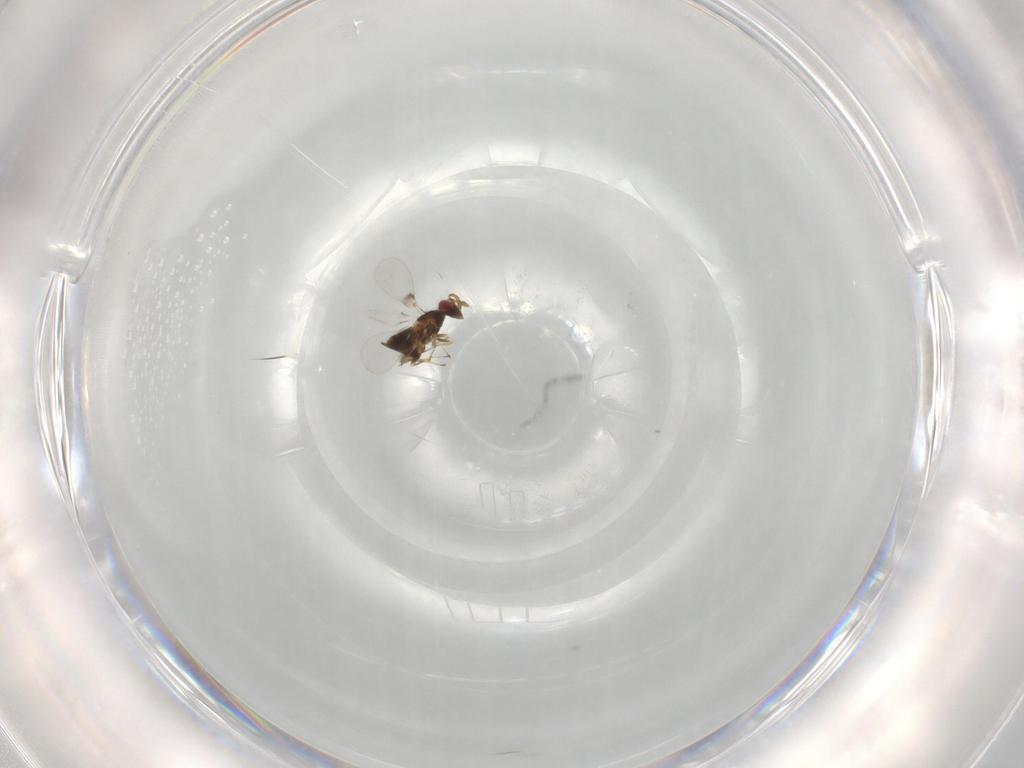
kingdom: Animalia
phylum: Arthropoda
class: Insecta
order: Hymenoptera
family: Trichogrammatidae
